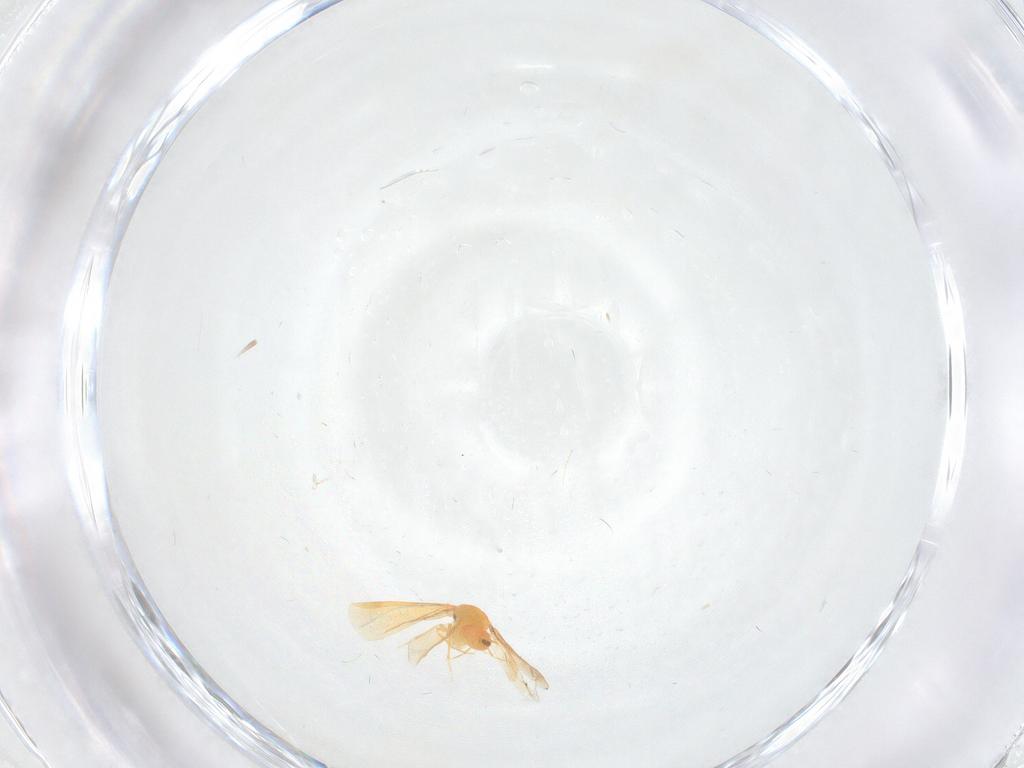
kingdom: Animalia
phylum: Arthropoda
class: Insecta
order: Hemiptera
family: Aleyrodidae
